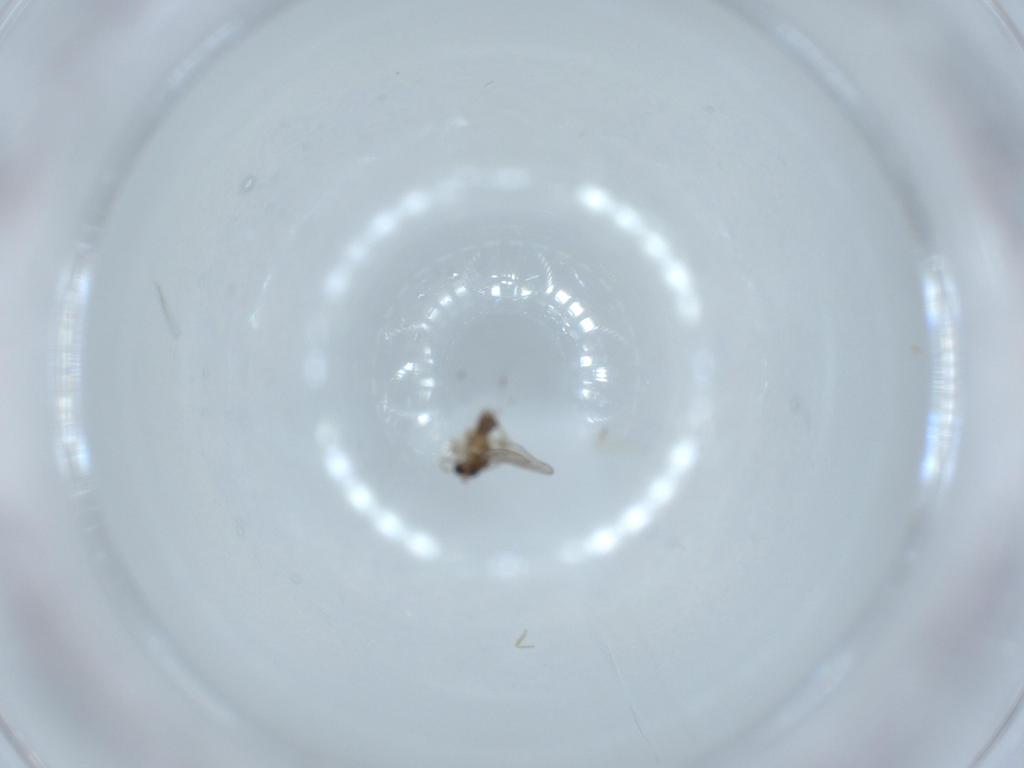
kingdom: Animalia
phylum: Arthropoda
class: Insecta
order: Diptera
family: Cecidomyiidae
